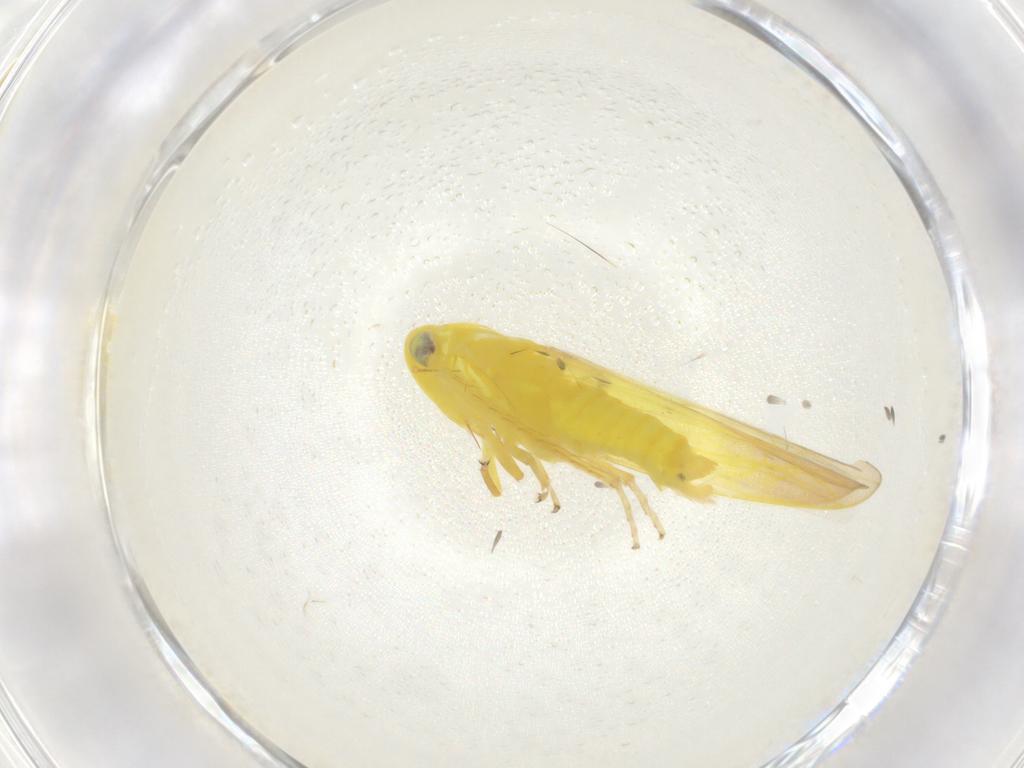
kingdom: Animalia
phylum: Arthropoda
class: Insecta
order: Hemiptera
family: Cicadellidae
